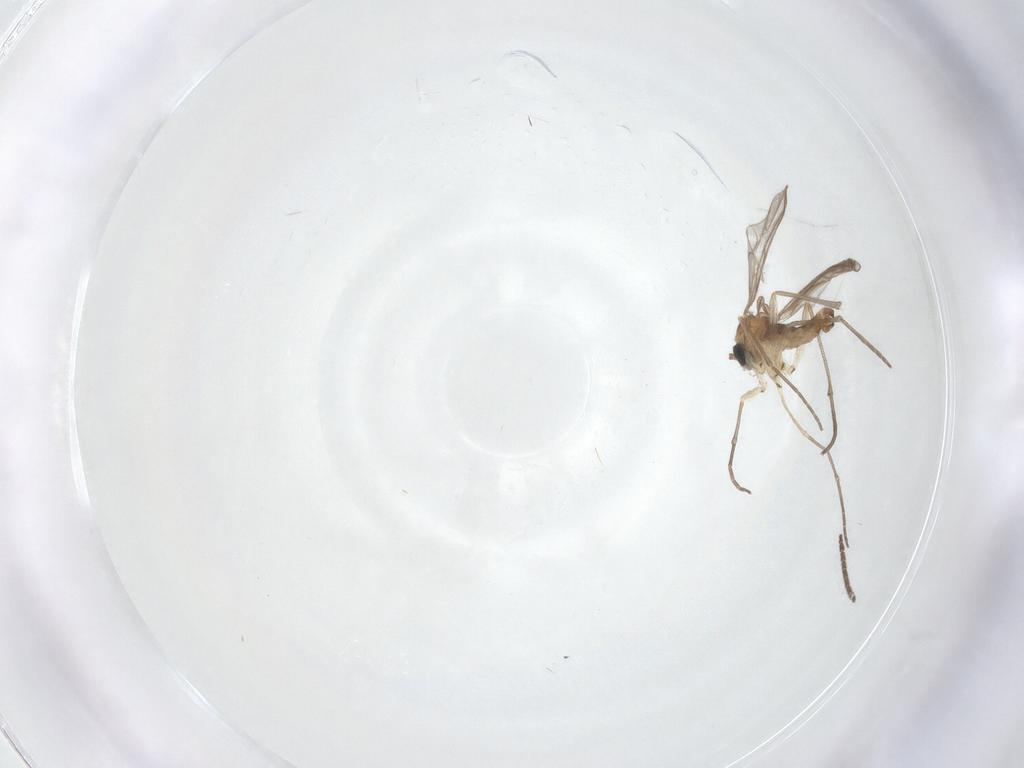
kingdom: Animalia
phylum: Arthropoda
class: Insecta
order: Diptera
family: Sciaridae
